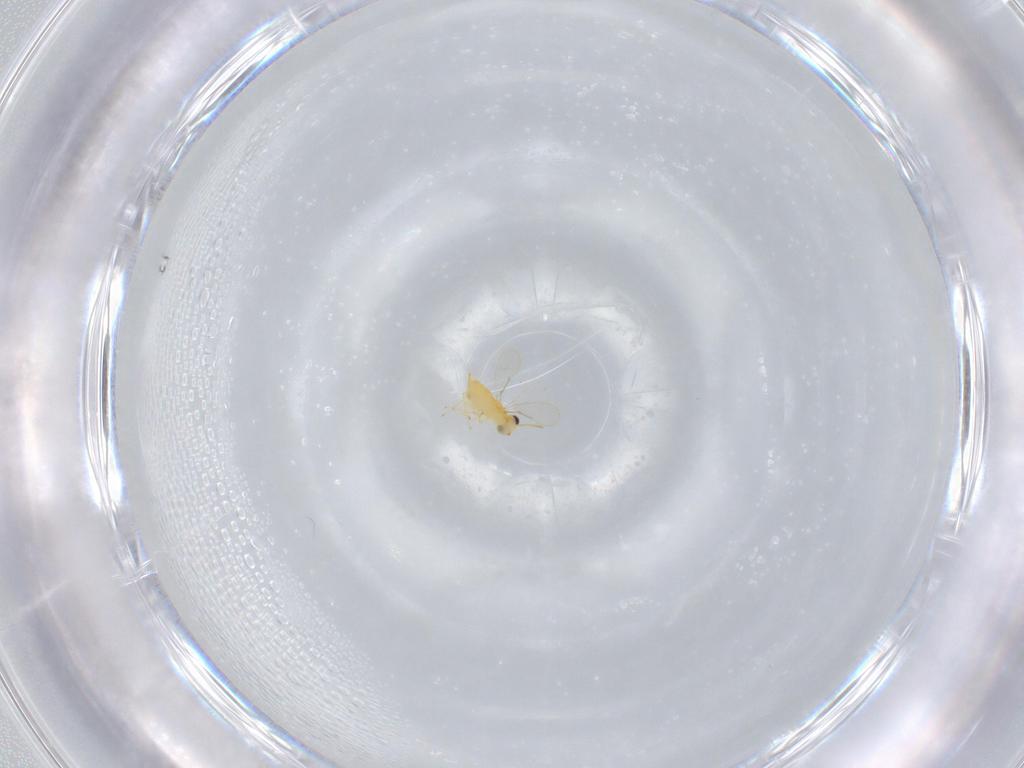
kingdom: Animalia
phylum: Arthropoda
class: Insecta
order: Hymenoptera
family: Aphelinidae
